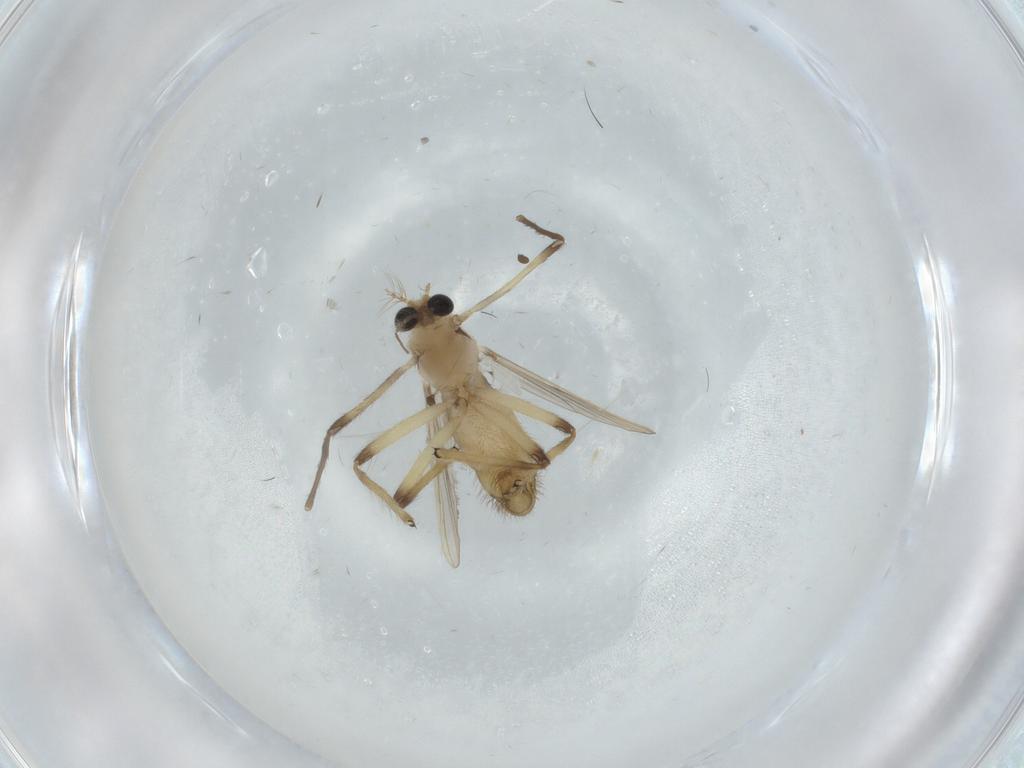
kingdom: Animalia
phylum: Arthropoda
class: Insecta
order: Diptera
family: Chironomidae
